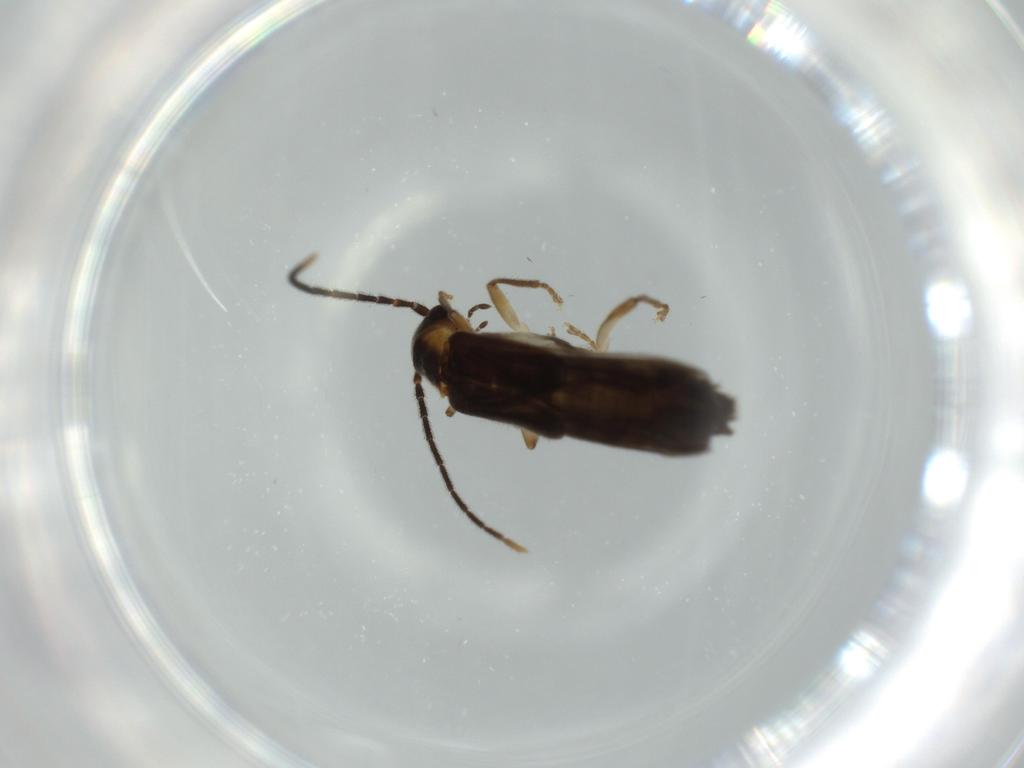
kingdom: Animalia
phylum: Arthropoda
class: Insecta
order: Coleoptera
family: Cantharidae
